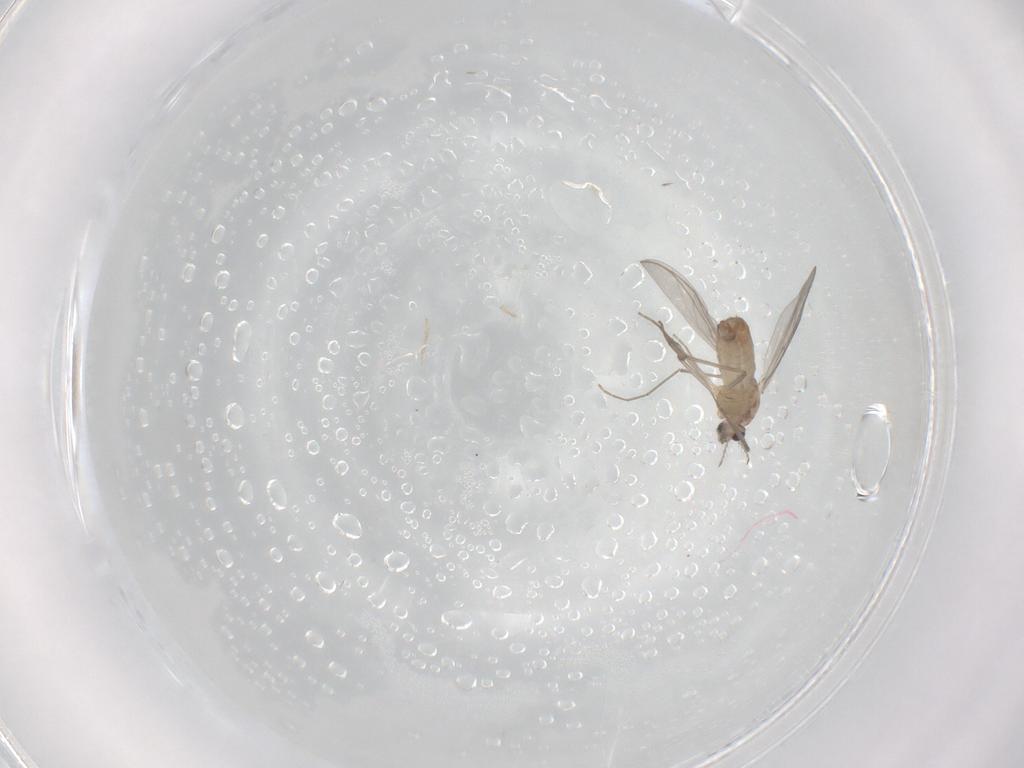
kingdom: Animalia
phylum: Arthropoda
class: Insecta
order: Diptera
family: Chironomidae
